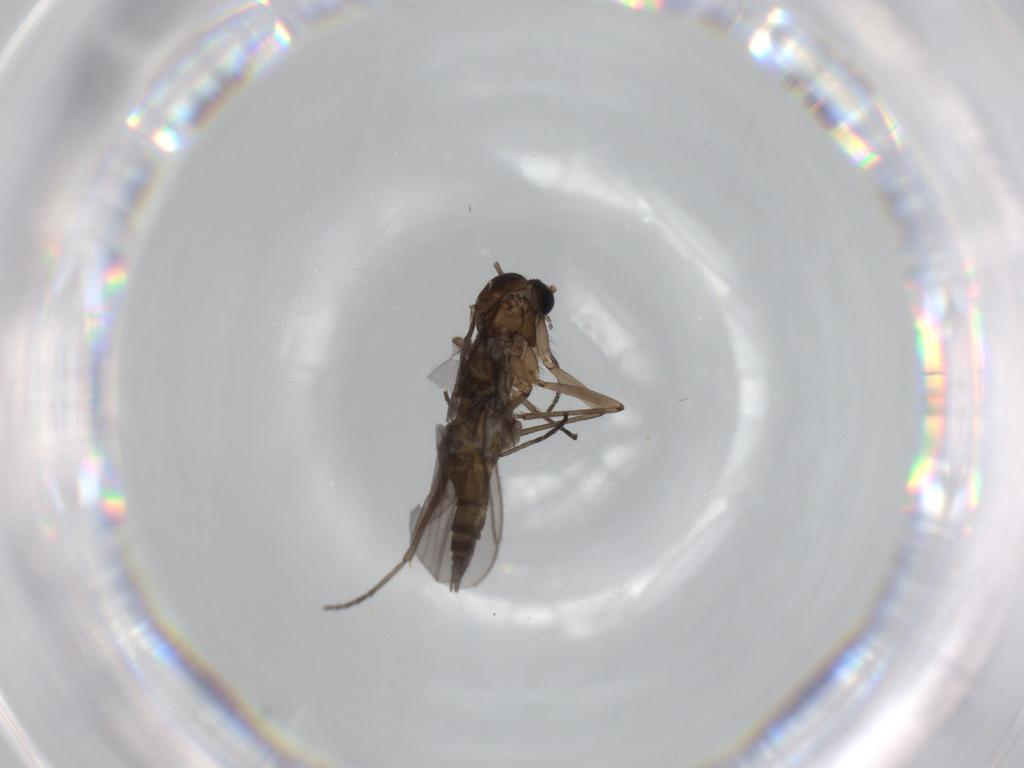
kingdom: Animalia
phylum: Arthropoda
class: Insecta
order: Diptera
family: Sciaridae
